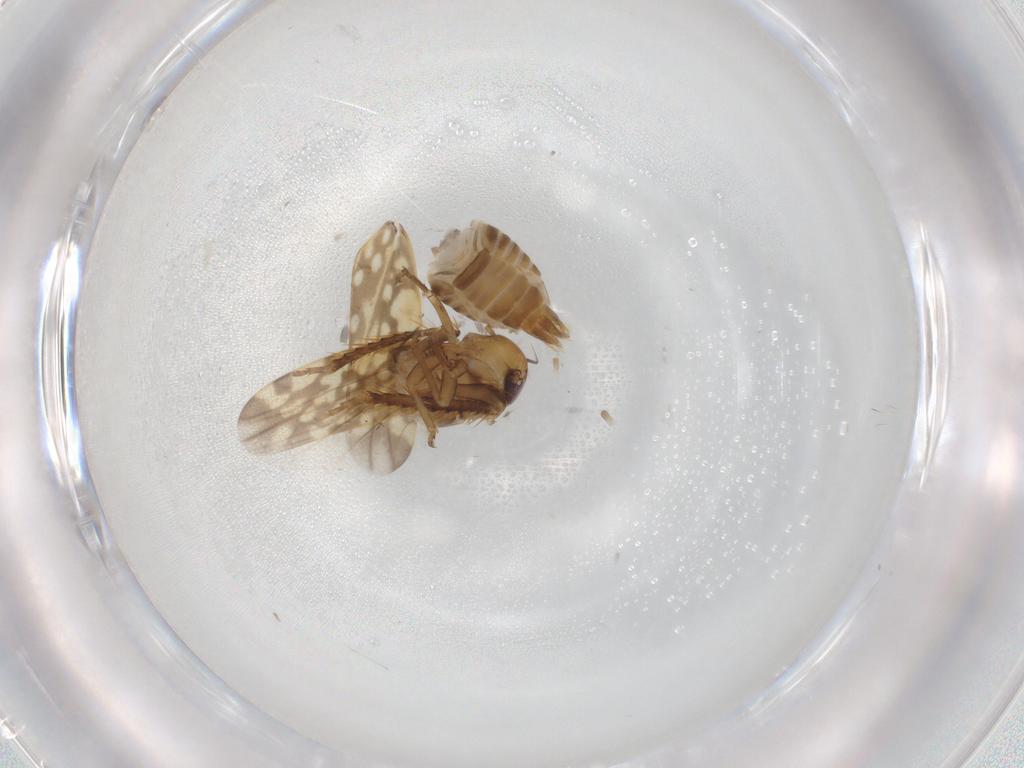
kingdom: Animalia
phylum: Arthropoda
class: Insecta
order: Hemiptera
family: Cicadellidae
